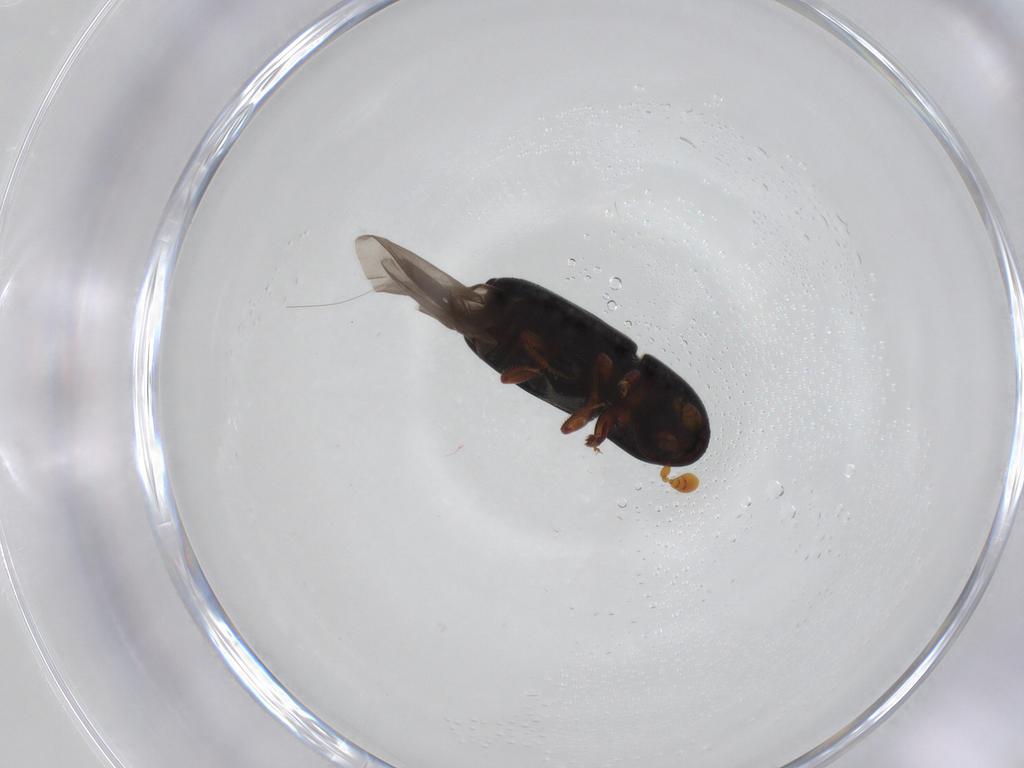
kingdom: Animalia
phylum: Arthropoda
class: Insecta
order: Coleoptera
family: Curculionidae
